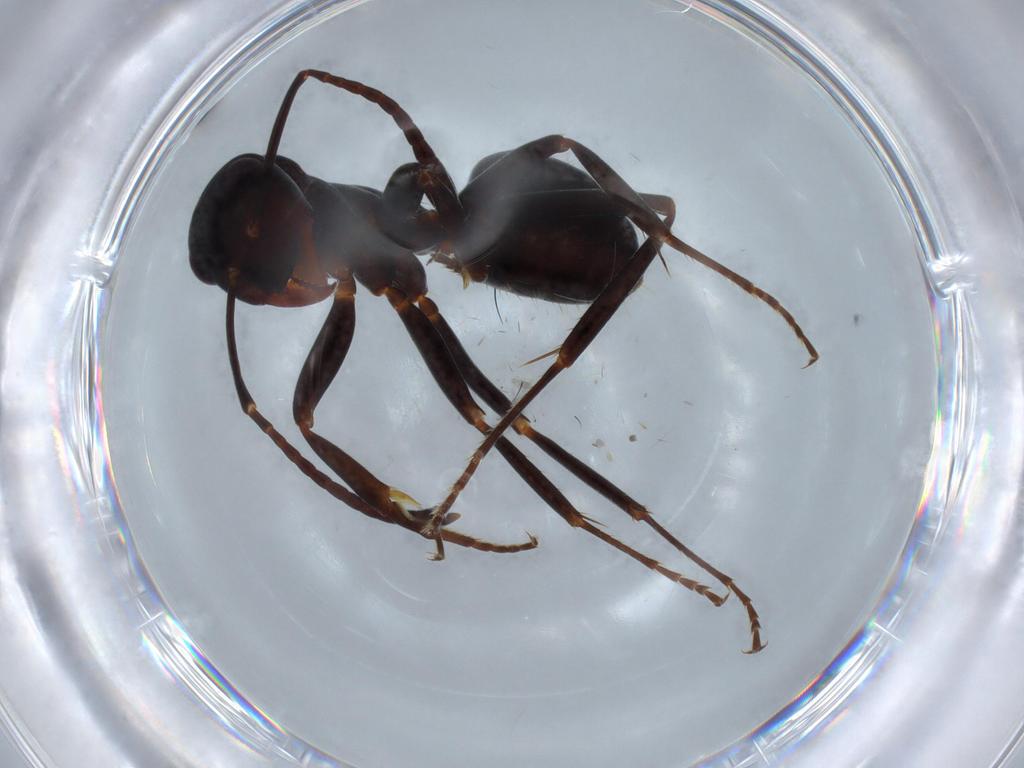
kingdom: Animalia
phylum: Arthropoda
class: Insecta
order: Hymenoptera
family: Formicidae
